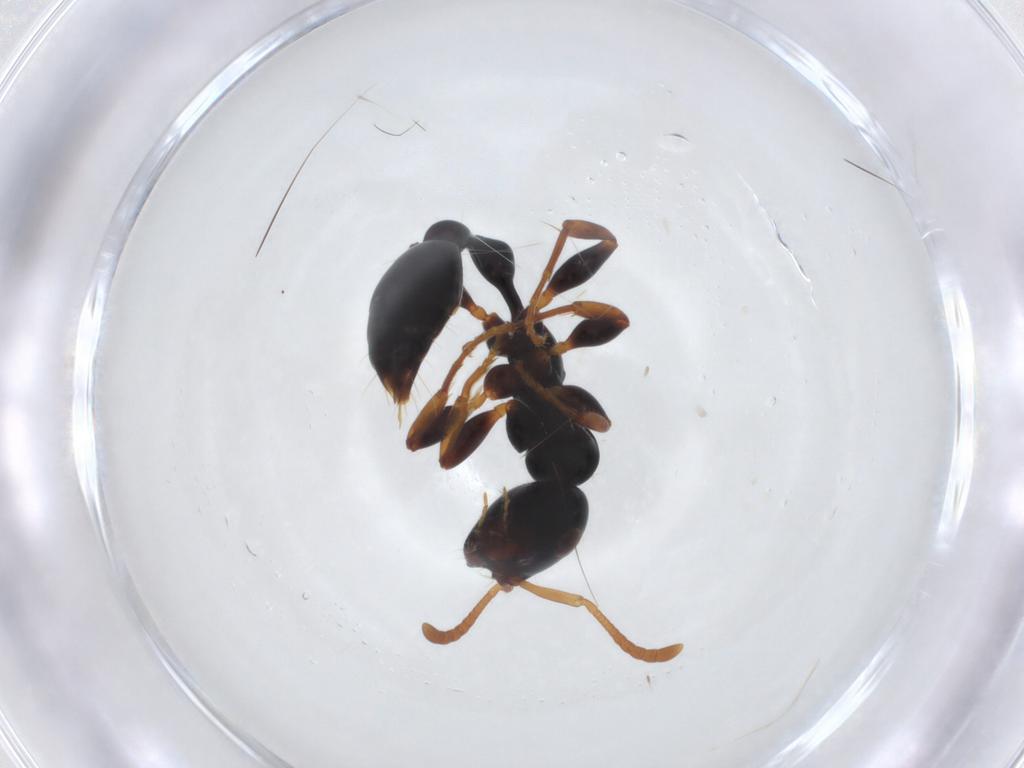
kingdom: Animalia
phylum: Arthropoda
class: Insecta
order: Hymenoptera
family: Formicidae
